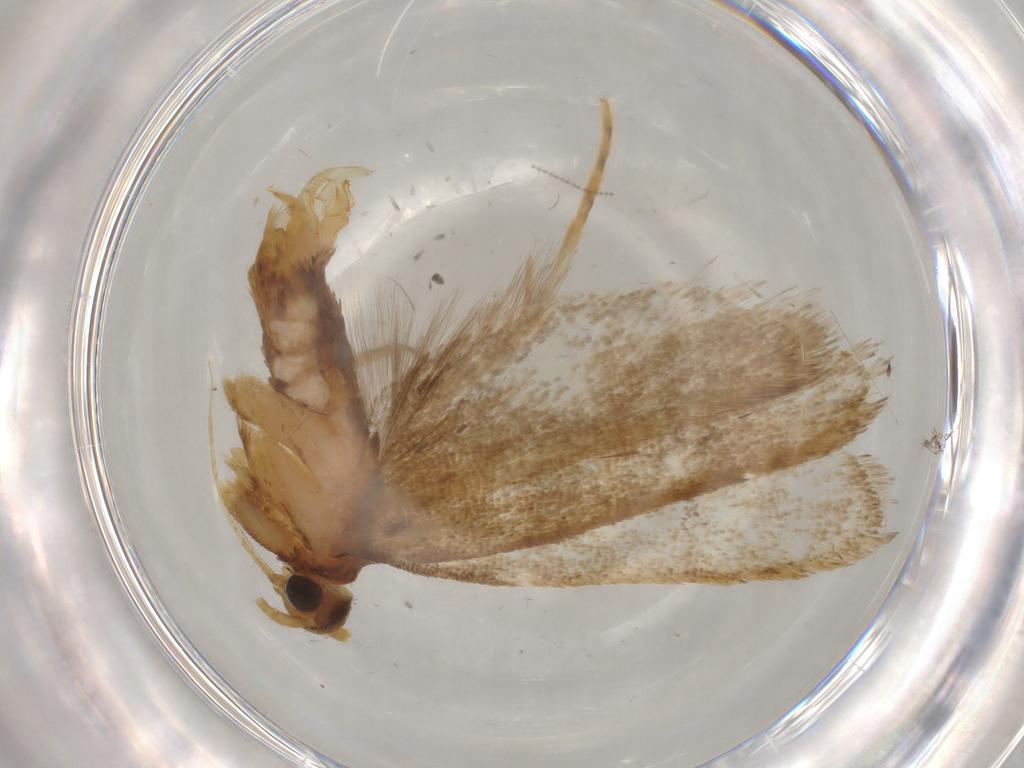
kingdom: Animalia
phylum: Arthropoda
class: Insecta
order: Lepidoptera
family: Lecithoceridae
